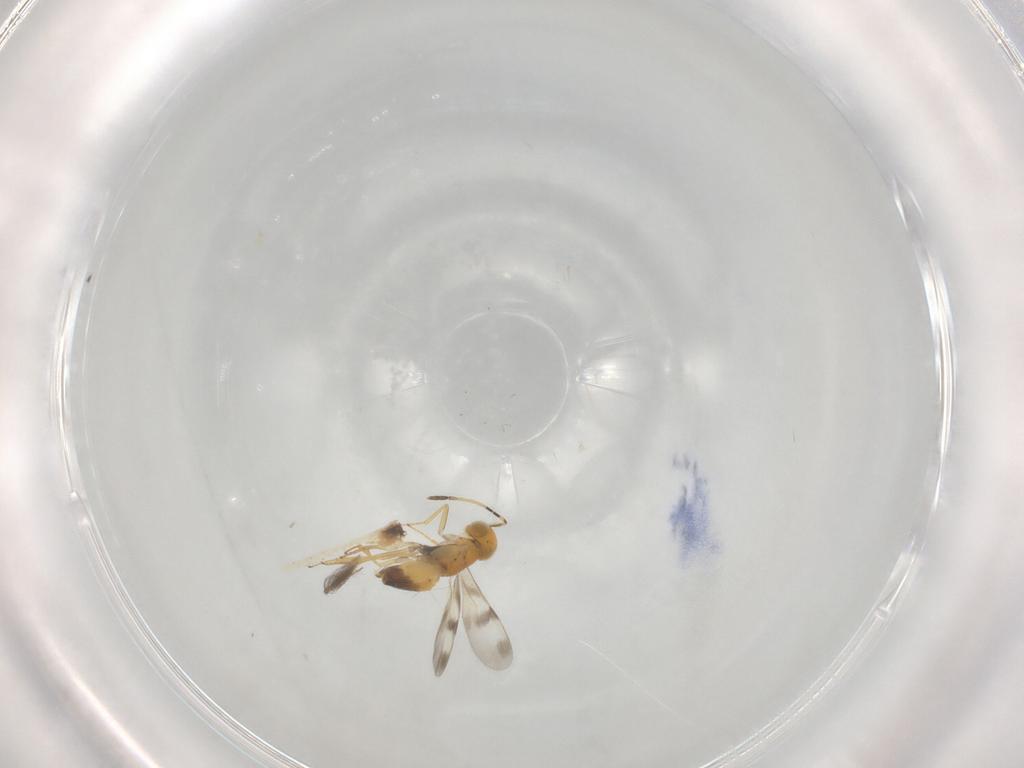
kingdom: Animalia
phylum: Arthropoda
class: Insecta
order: Hymenoptera
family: Encyrtidae
